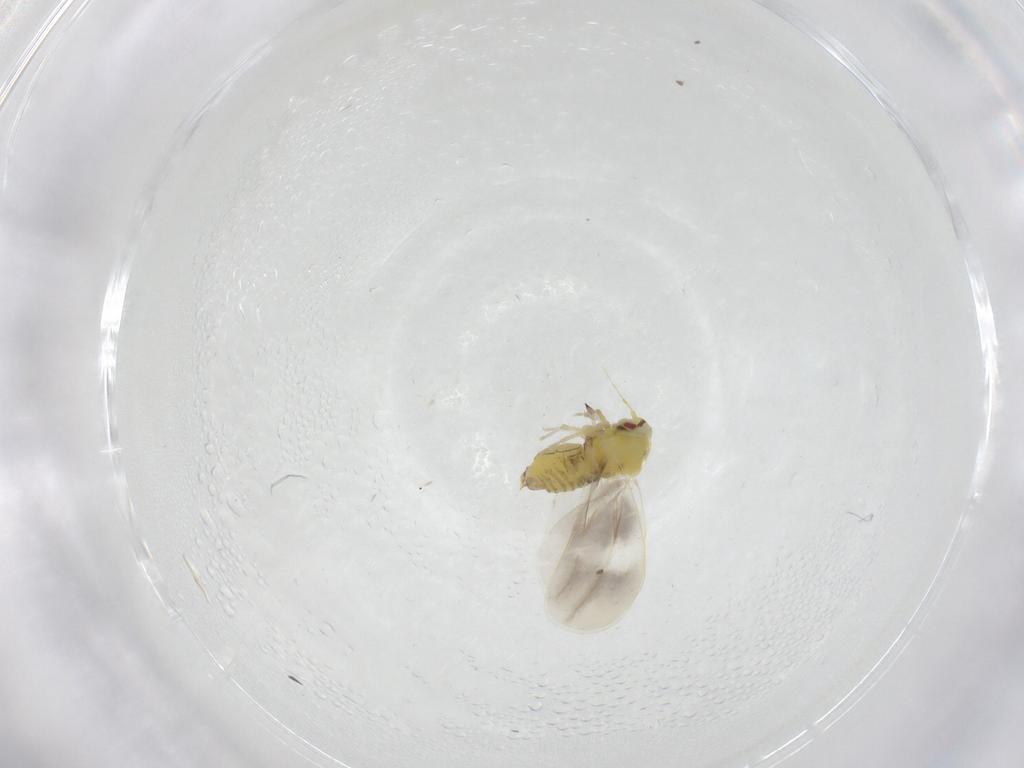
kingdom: Animalia
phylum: Arthropoda
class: Insecta
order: Hemiptera
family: Aleyrodidae
